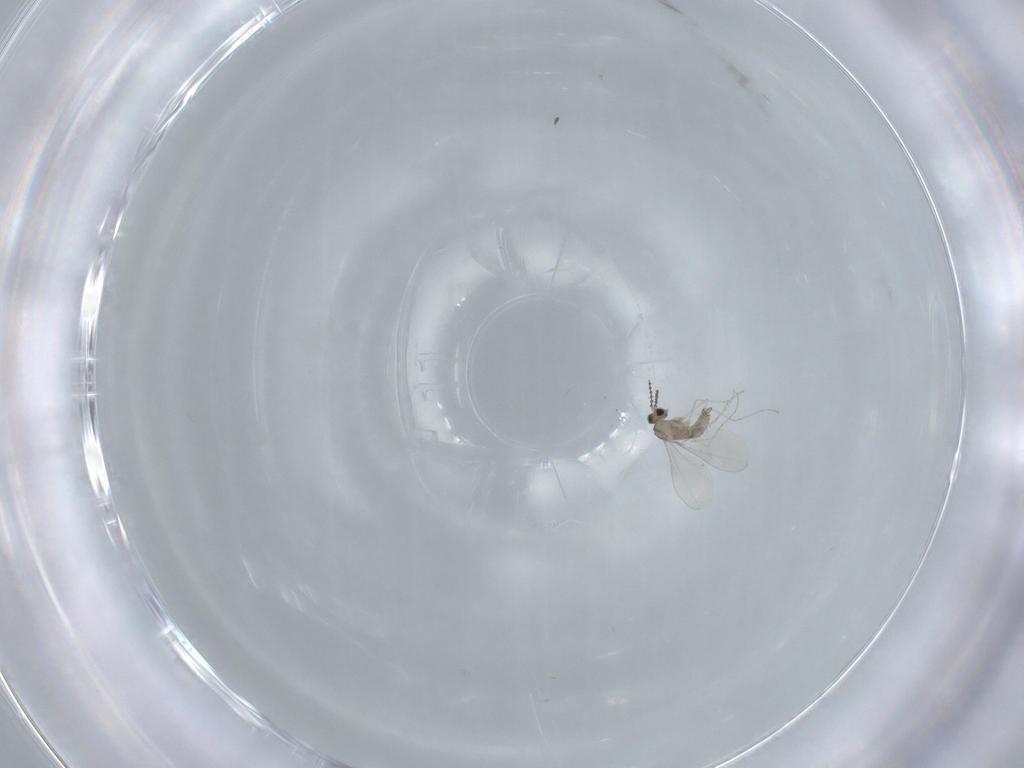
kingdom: Animalia
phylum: Arthropoda
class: Insecta
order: Diptera
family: Cecidomyiidae
